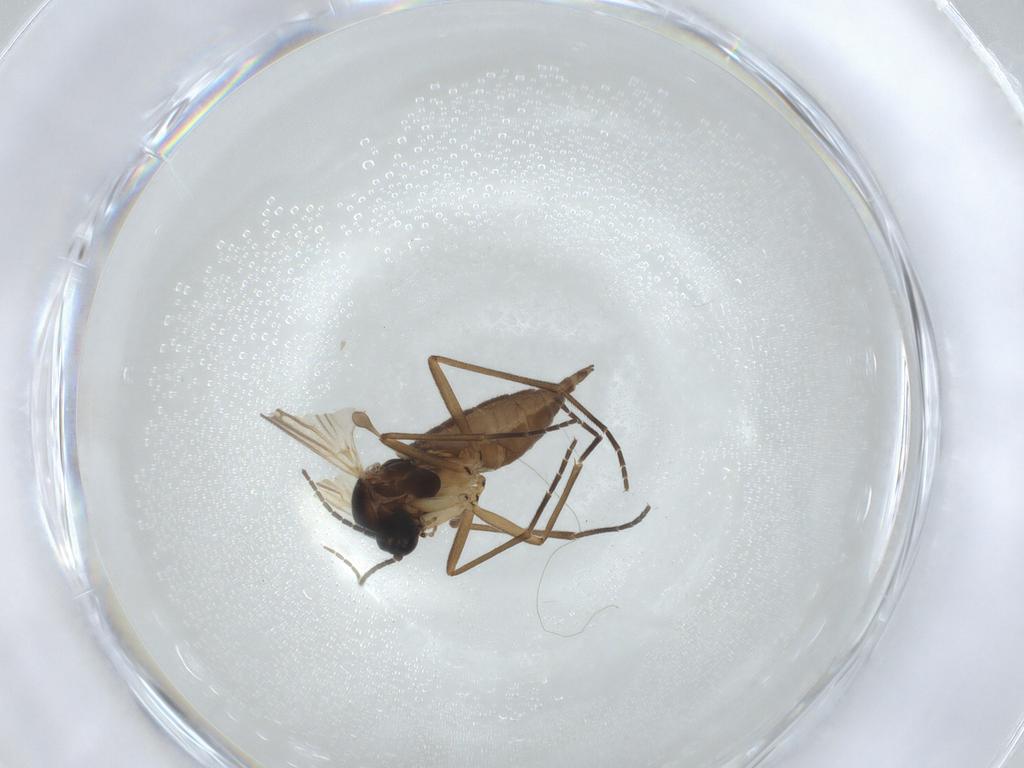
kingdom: Animalia
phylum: Arthropoda
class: Insecta
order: Diptera
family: Sciaridae
